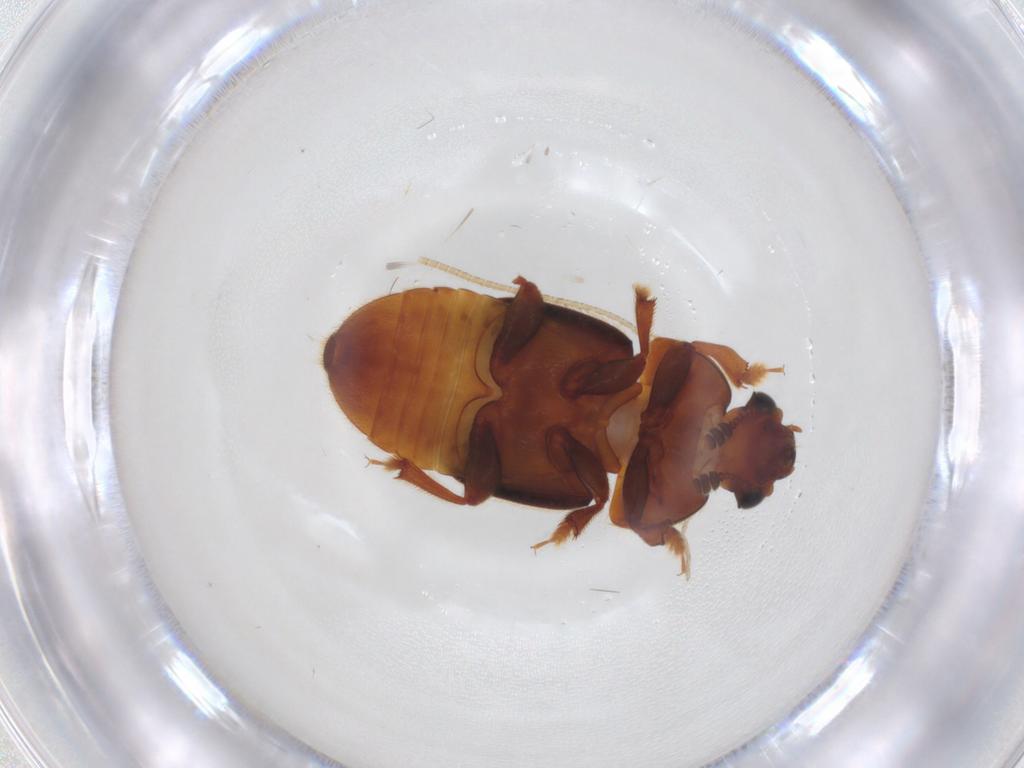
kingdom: Animalia
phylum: Arthropoda
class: Insecta
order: Coleoptera
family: Nitidulidae
